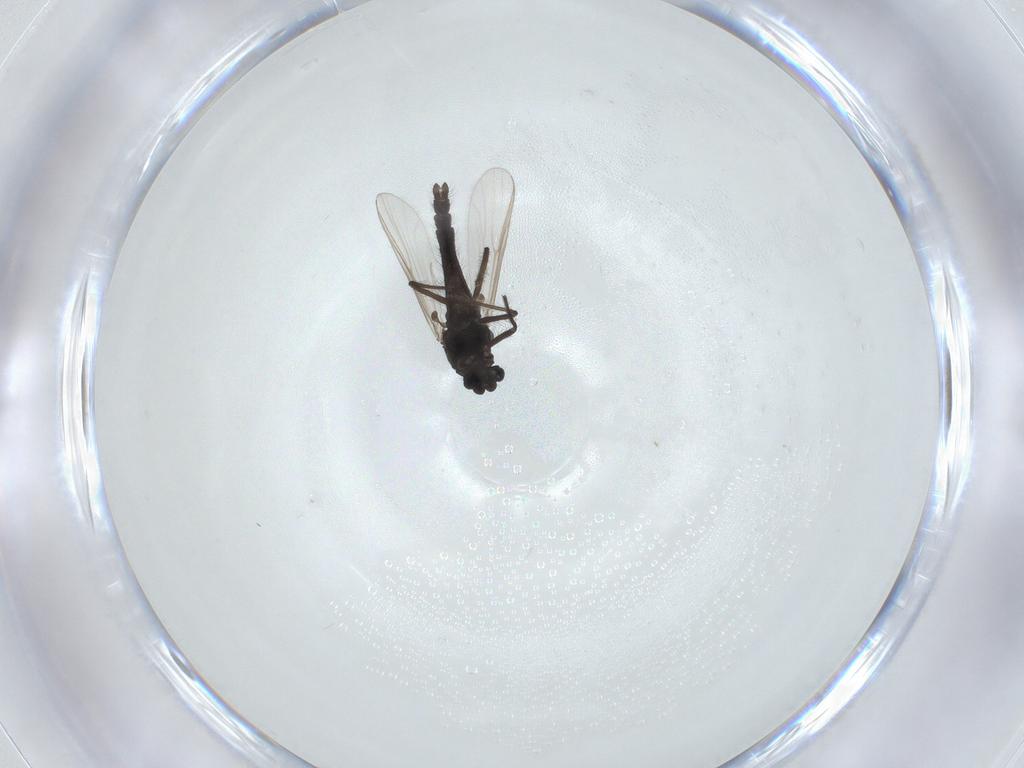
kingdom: Animalia
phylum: Arthropoda
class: Insecta
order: Diptera
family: Chironomidae
